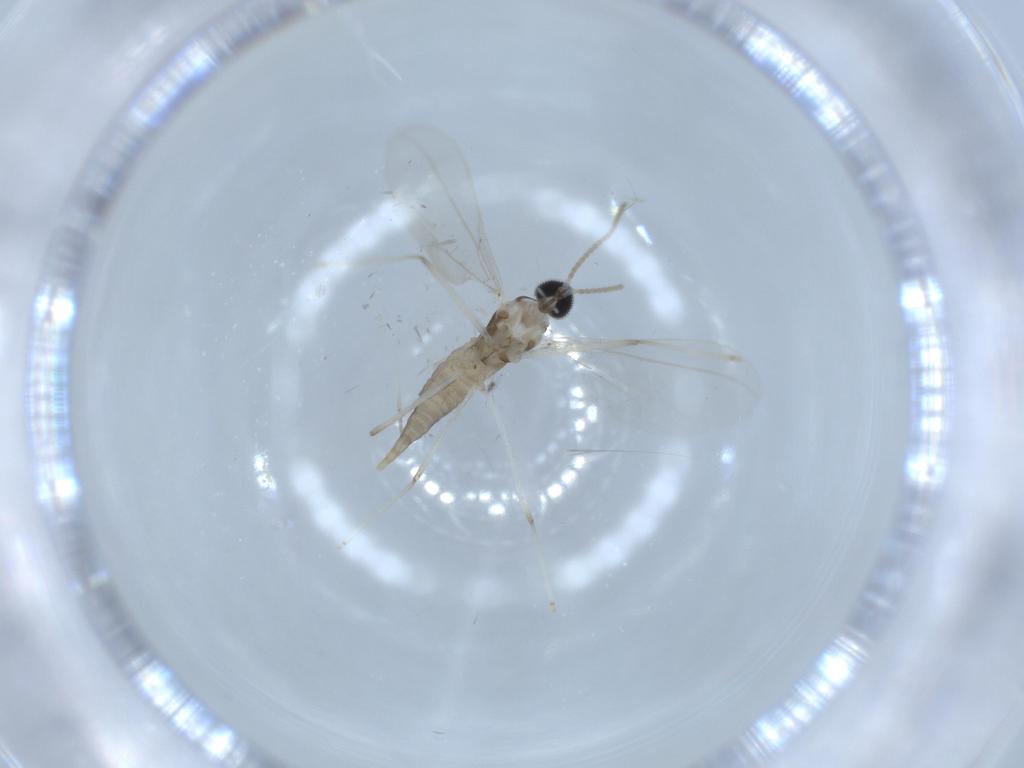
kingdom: Animalia
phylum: Arthropoda
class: Insecta
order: Diptera
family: Cecidomyiidae
